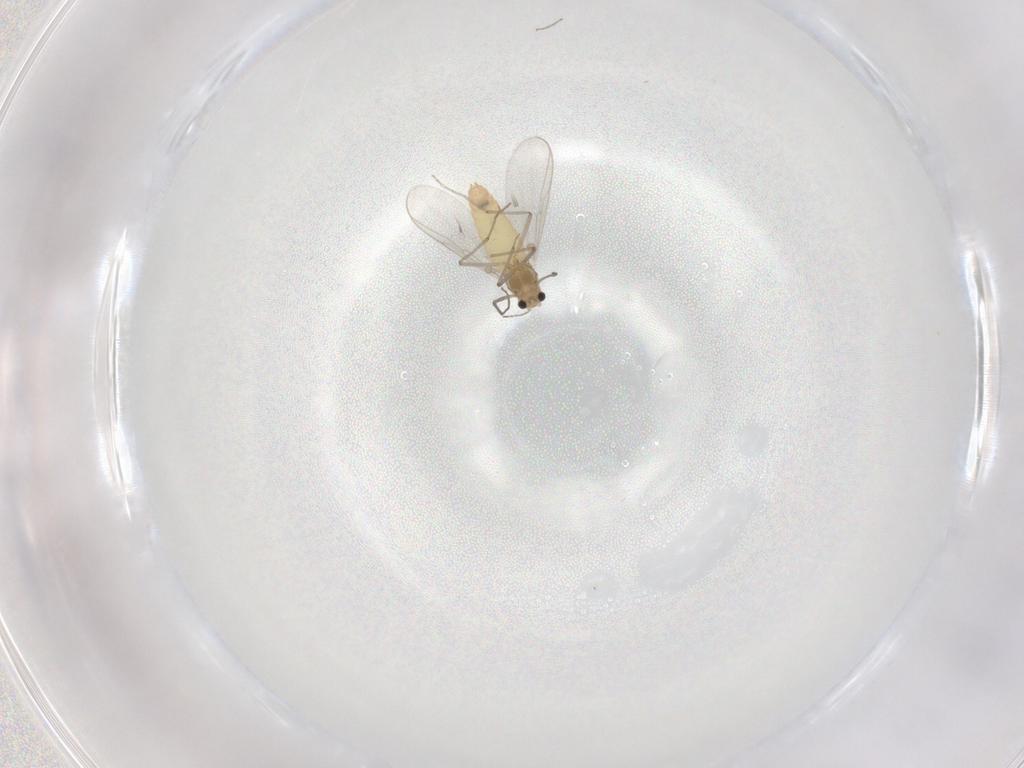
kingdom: Animalia
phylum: Arthropoda
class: Insecta
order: Diptera
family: Chironomidae
